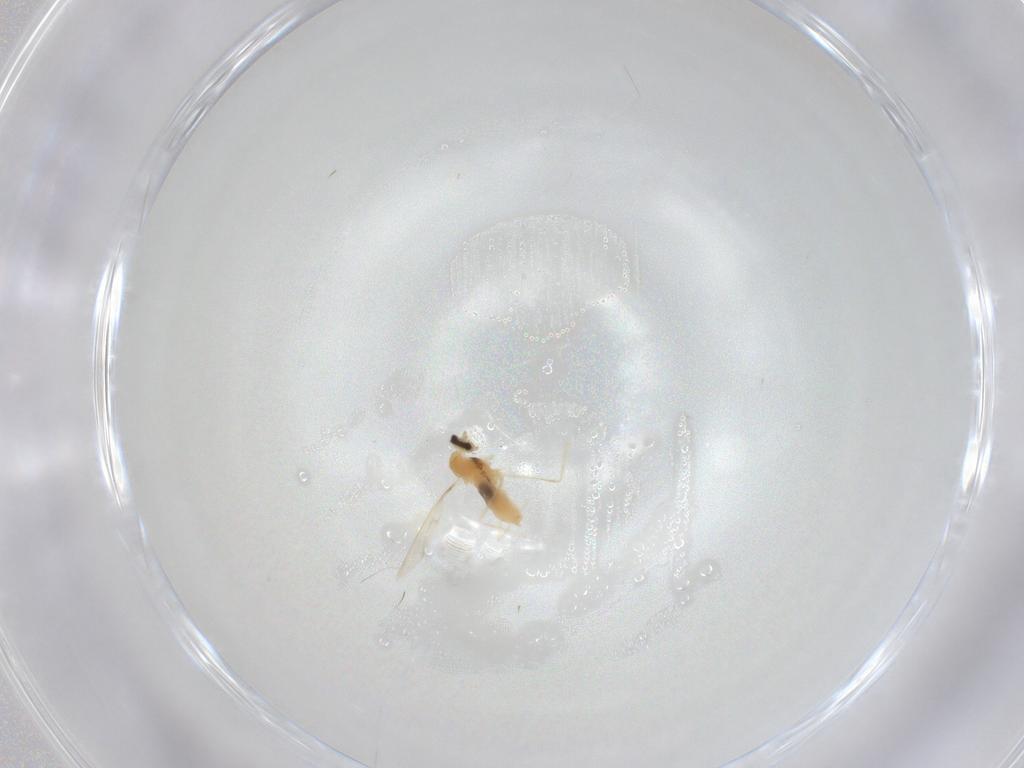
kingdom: Animalia
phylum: Arthropoda
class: Insecta
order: Diptera
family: Cecidomyiidae
